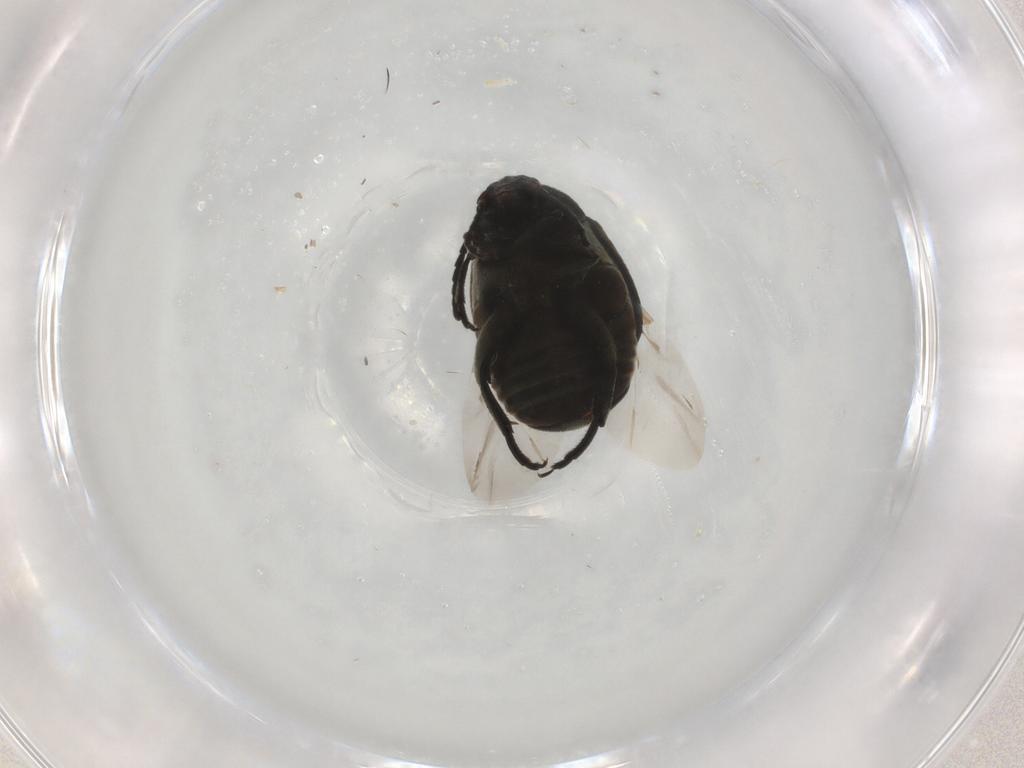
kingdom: Animalia
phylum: Arthropoda
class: Insecta
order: Coleoptera
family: Chrysomelidae
